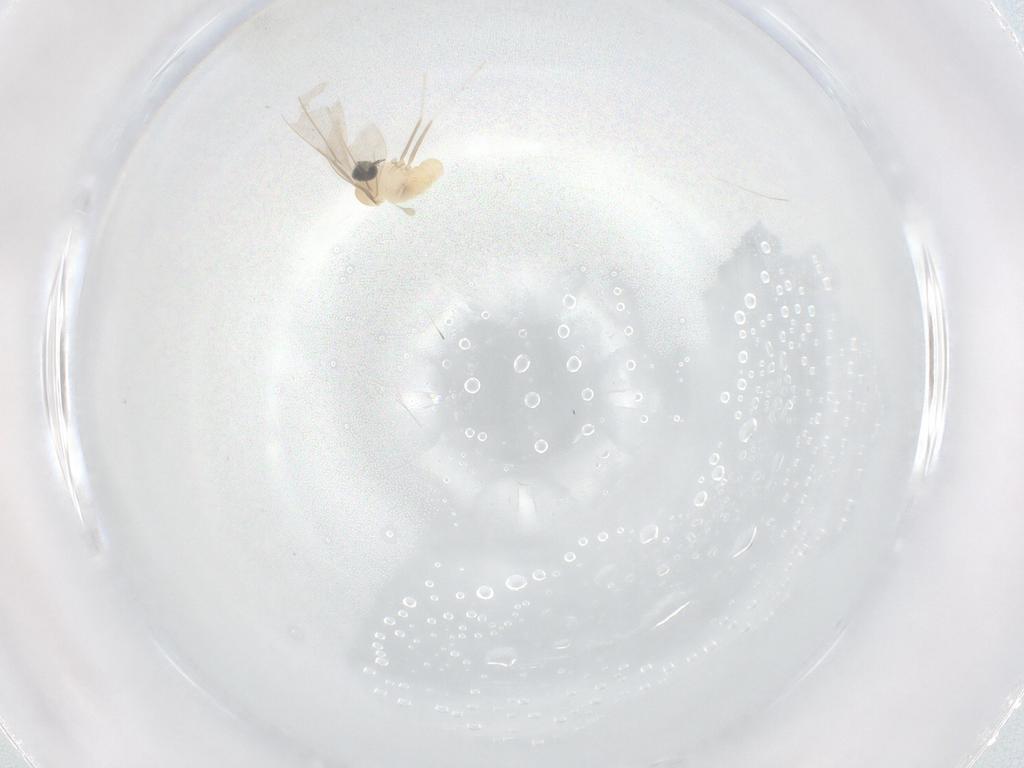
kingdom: Animalia
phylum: Arthropoda
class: Insecta
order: Diptera
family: Cecidomyiidae
